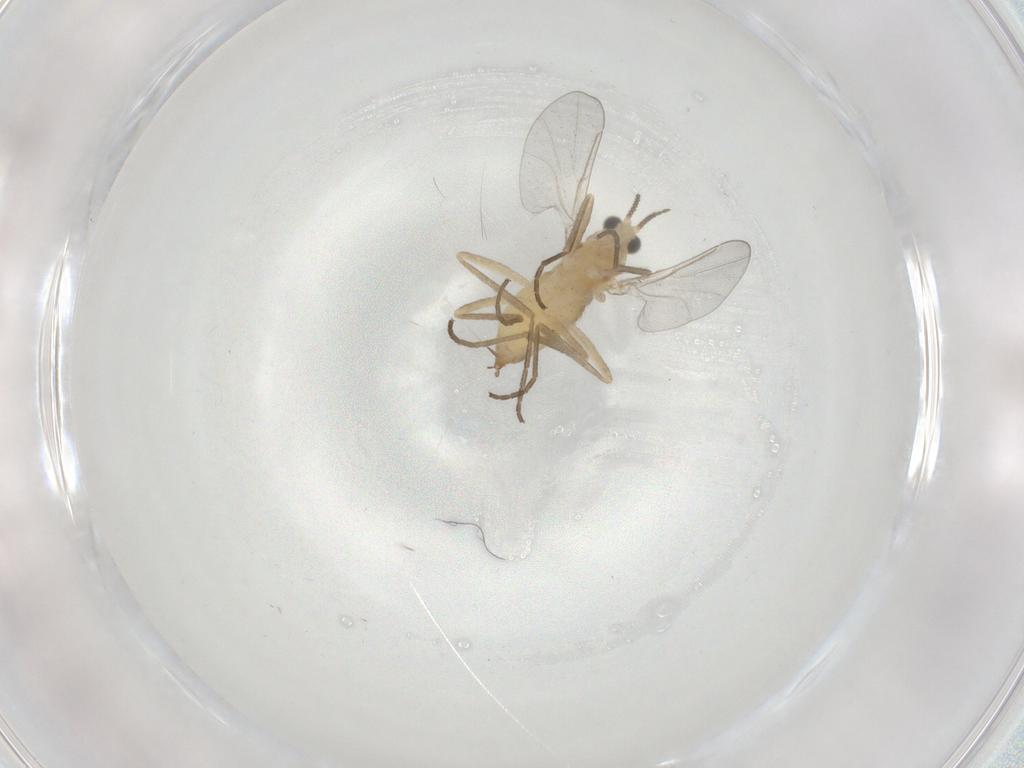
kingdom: Animalia
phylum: Arthropoda
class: Insecta
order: Diptera
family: Cecidomyiidae
